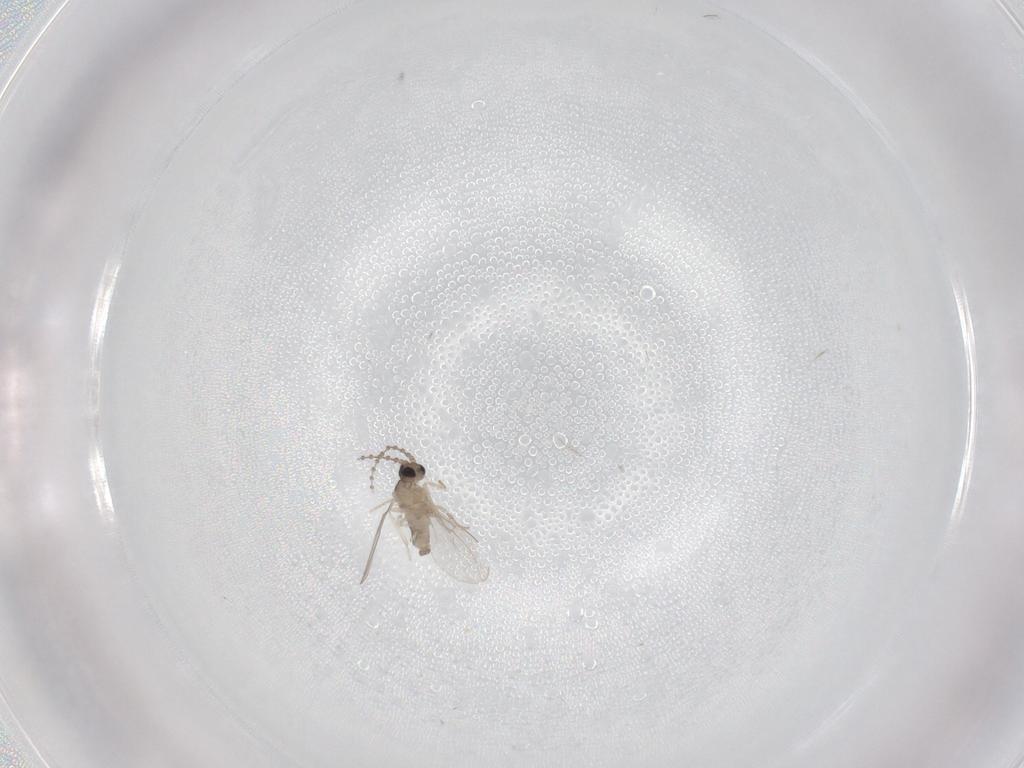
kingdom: Animalia
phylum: Arthropoda
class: Insecta
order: Diptera
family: Cecidomyiidae
